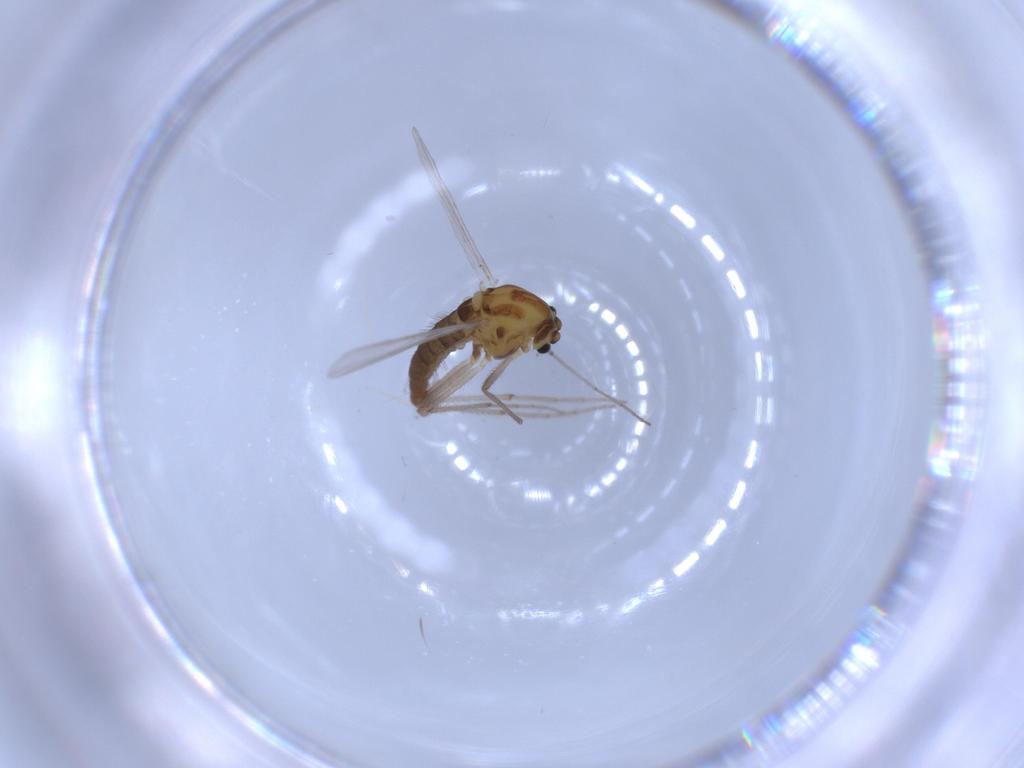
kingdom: Animalia
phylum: Arthropoda
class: Insecta
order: Diptera
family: Chironomidae
